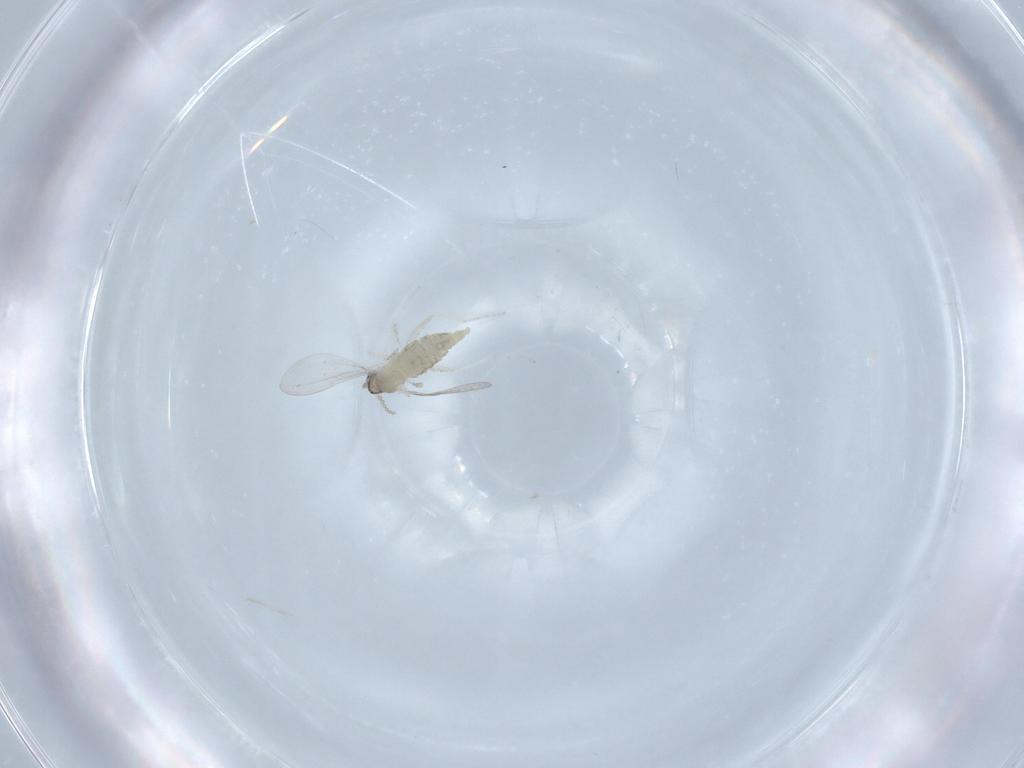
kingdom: Animalia
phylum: Arthropoda
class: Insecta
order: Diptera
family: Cecidomyiidae
